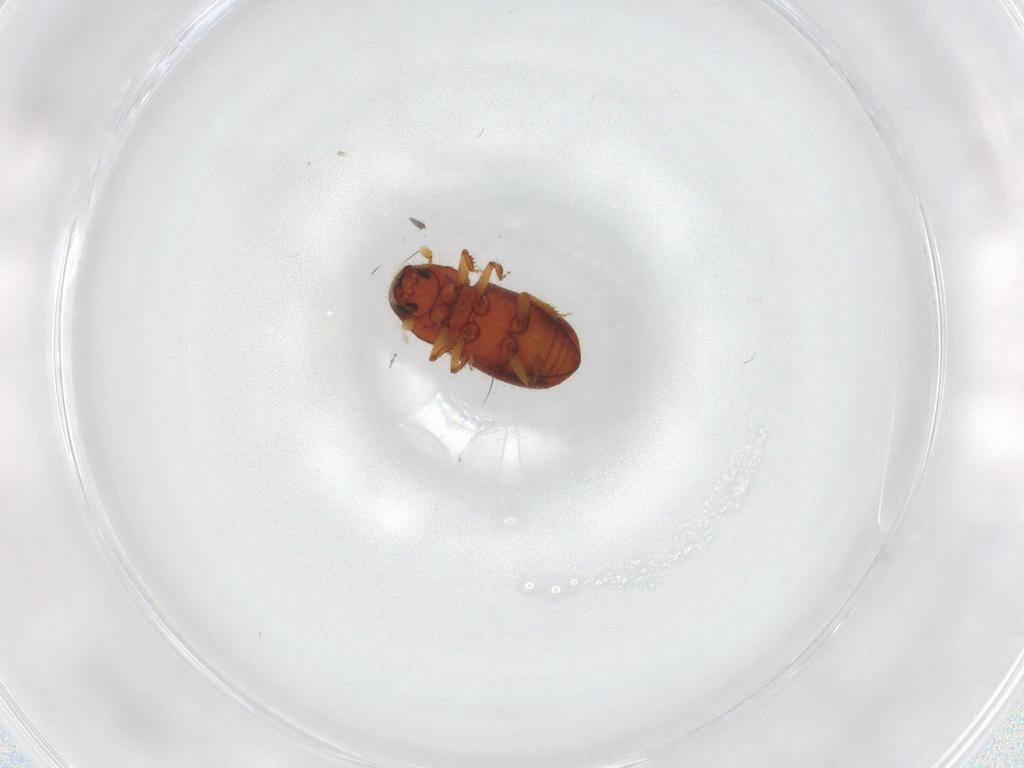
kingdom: Animalia
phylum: Arthropoda
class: Insecta
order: Coleoptera
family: Curculionidae
